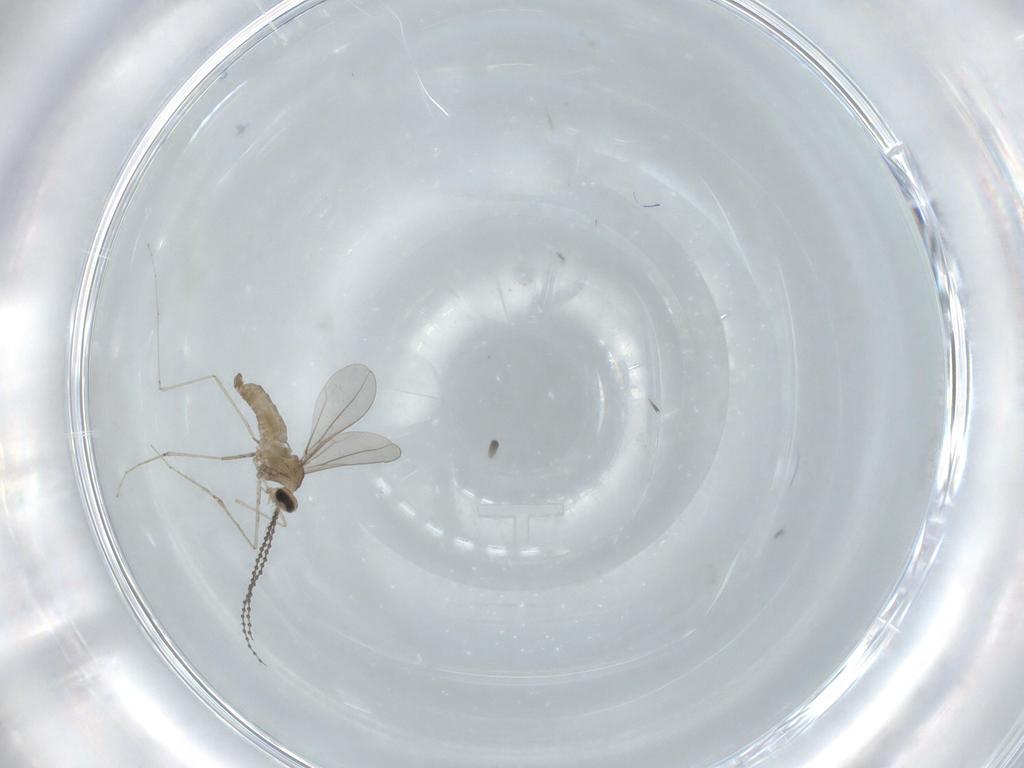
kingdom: Animalia
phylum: Arthropoda
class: Insecta
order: Diptera
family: Cecidomyiidae
